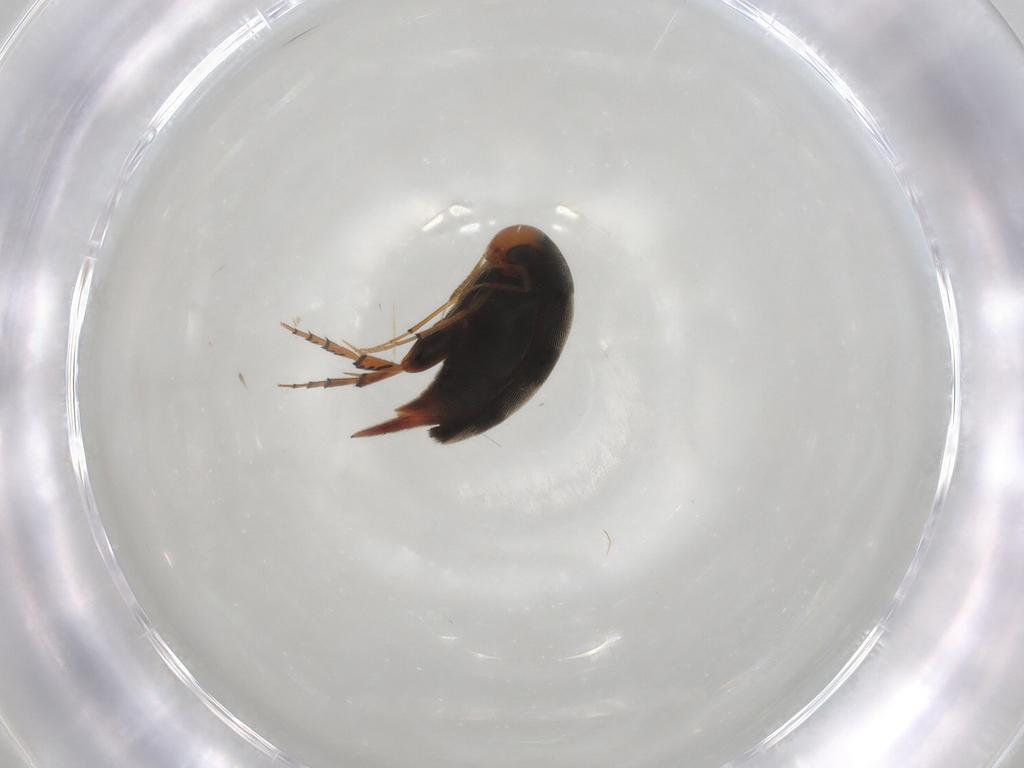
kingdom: Animalia
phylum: Arthropoda
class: Insecta
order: Coleoptera
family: Mordellidae
